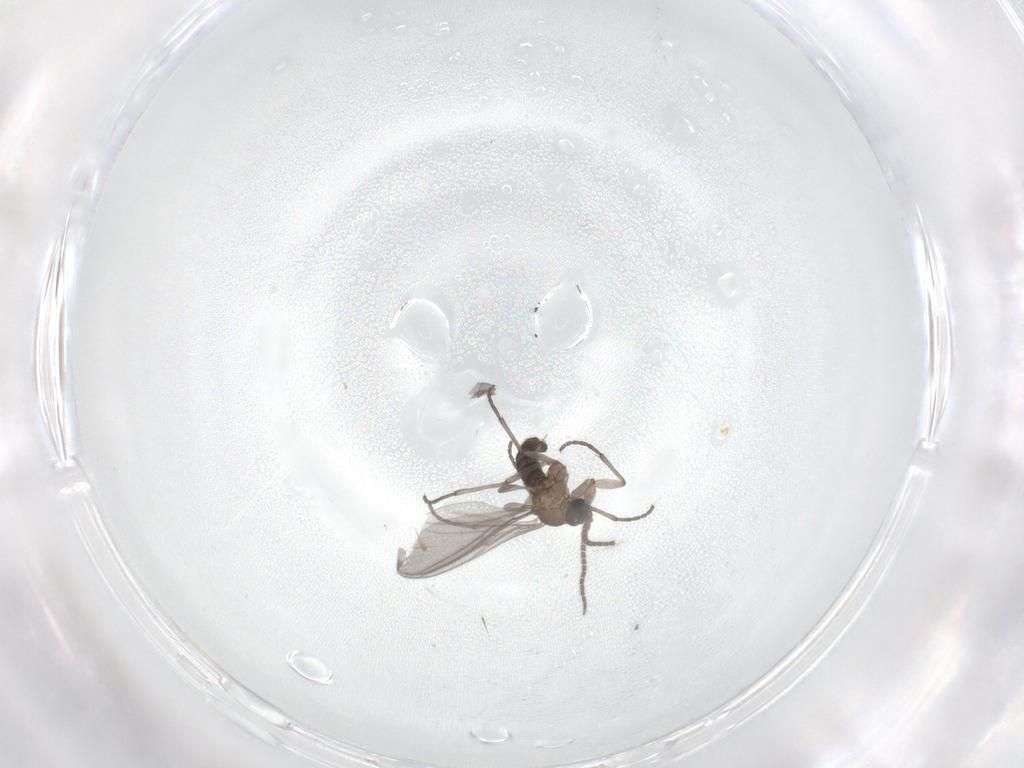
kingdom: Animalia
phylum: Arthropoda
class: Insecta
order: Diptera
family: Sciaridae
